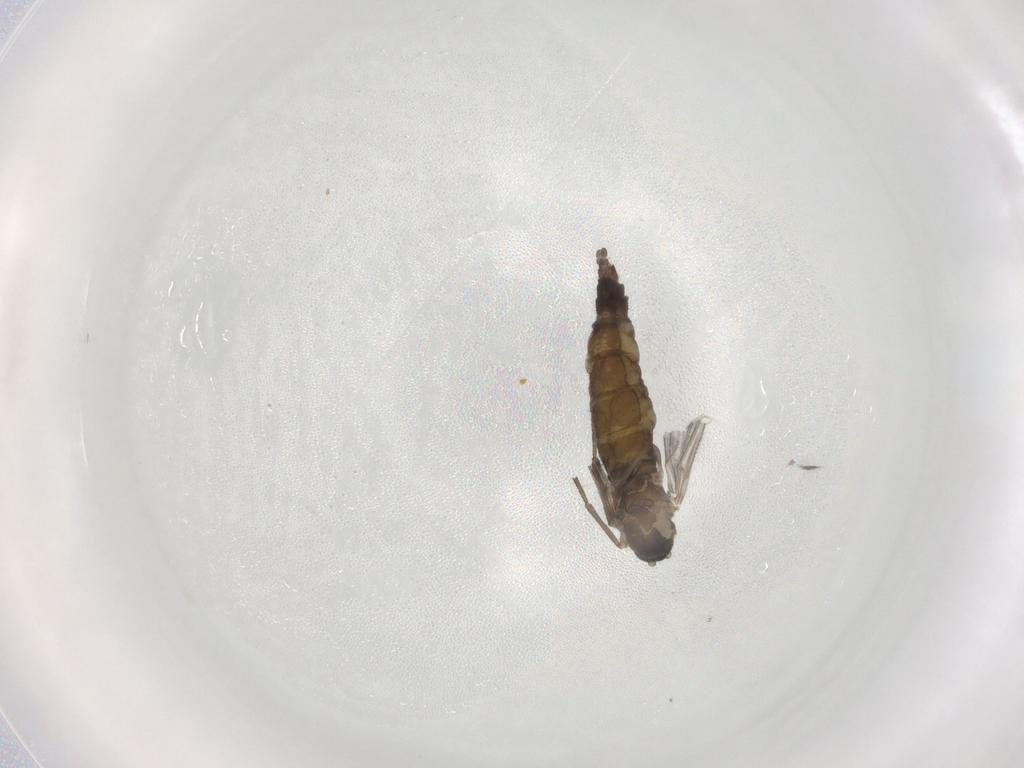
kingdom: Animalia
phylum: Arthropoda
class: Insecta
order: Diptera
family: Sciaridae
